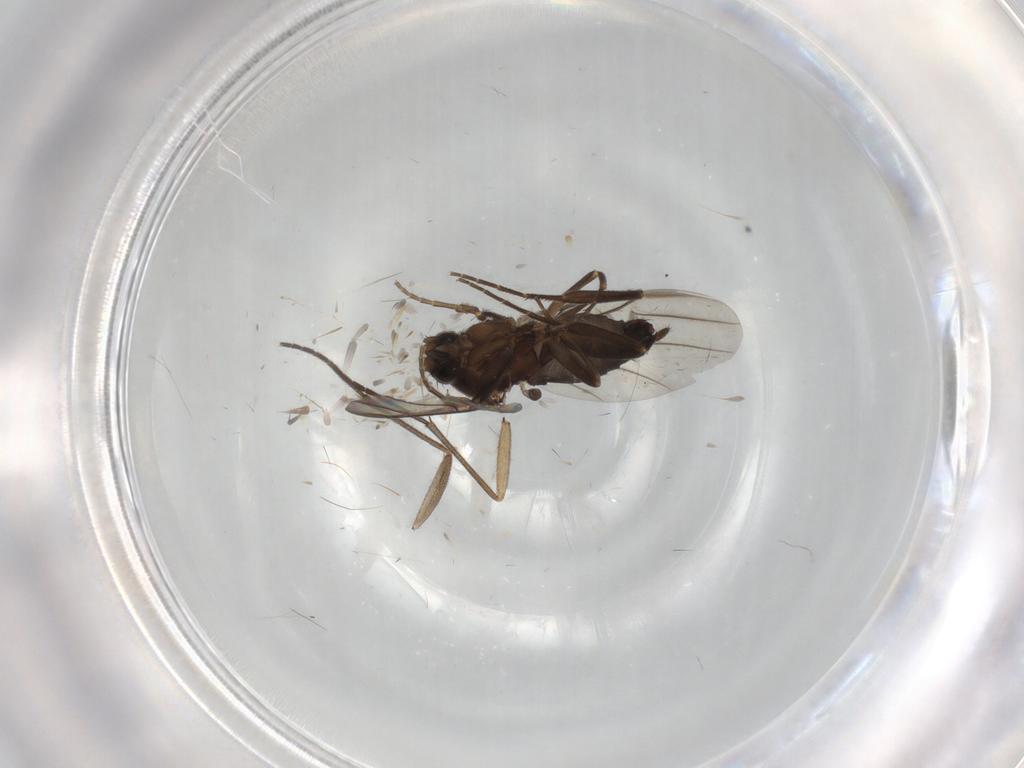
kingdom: Animalia
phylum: Arthropoda
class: Insecta
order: Diptera
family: Sciaridae
